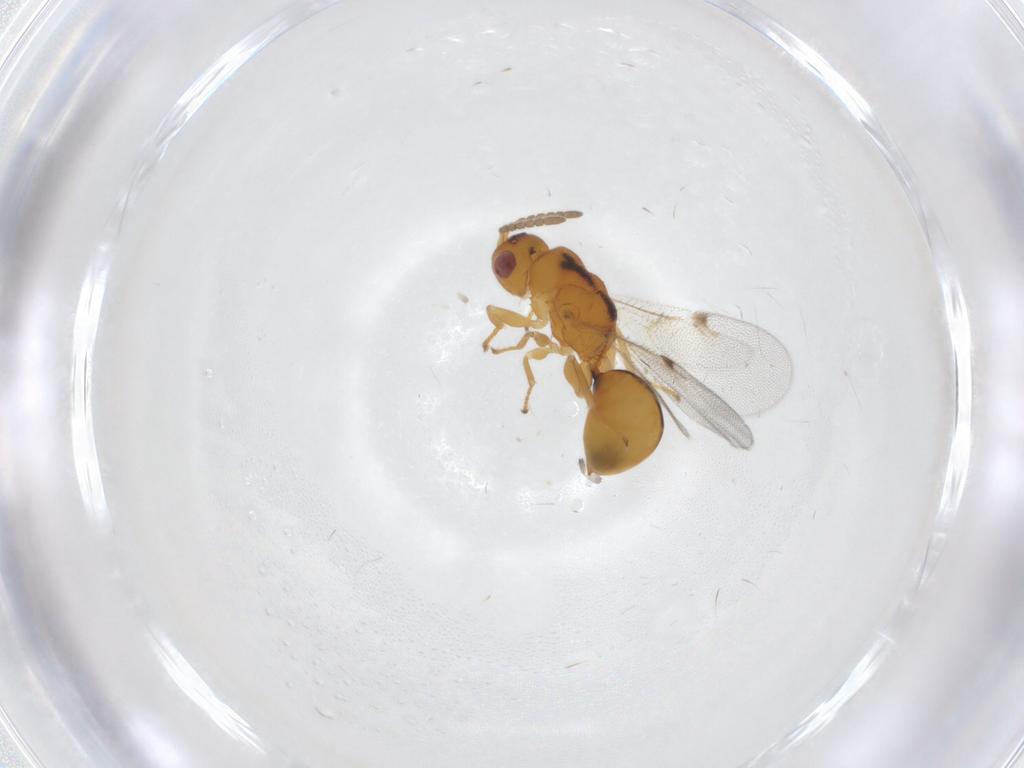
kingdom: Animalia
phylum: Arthropoda
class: Insecta
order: Hymenoptera
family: Eurytomidae
